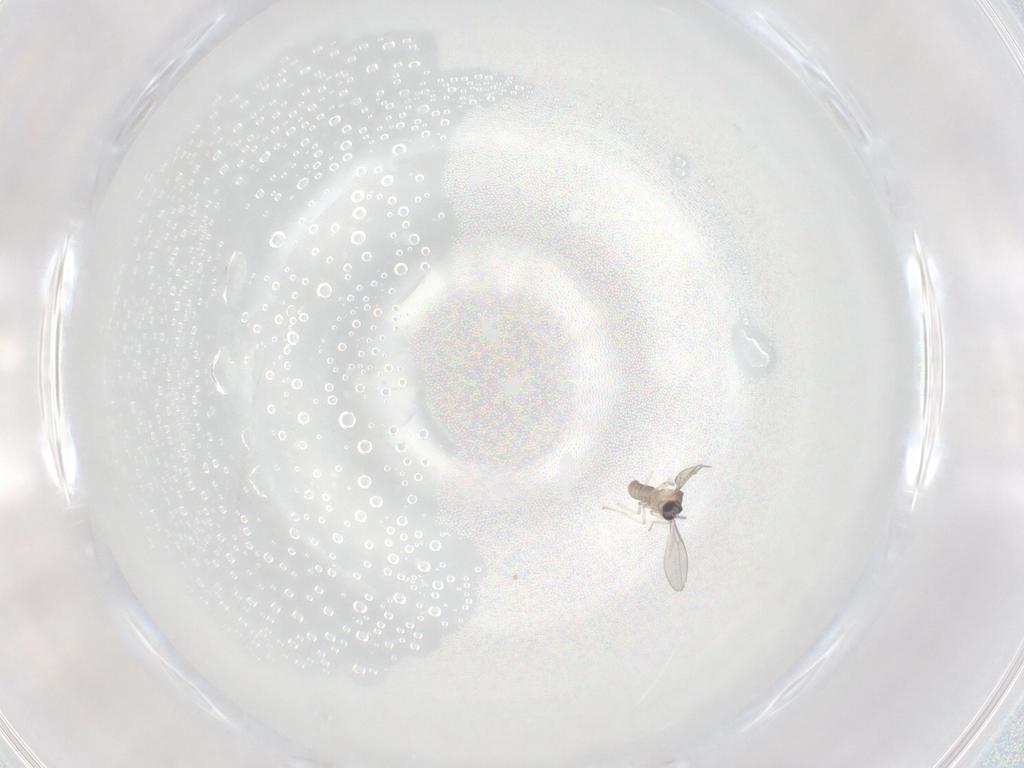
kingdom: Animalia
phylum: Arthropoda
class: Insecta
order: Diptera
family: Cecidomyiidae
